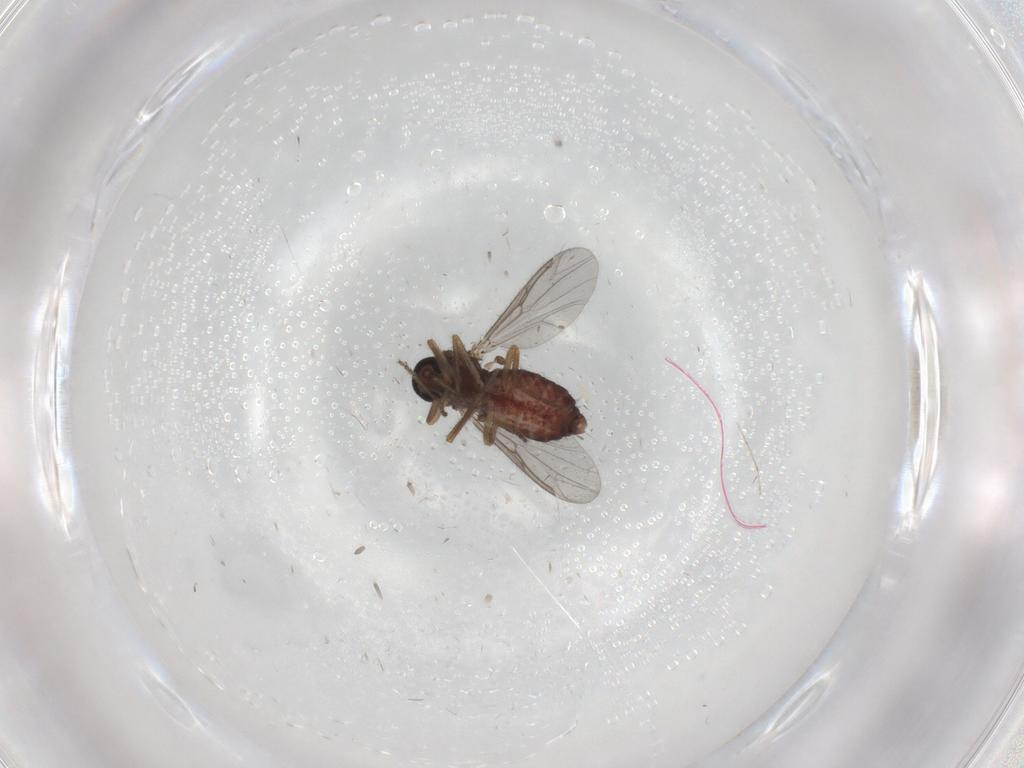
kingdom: Animalia
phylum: Arthropoda
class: Insecta
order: Diptera
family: Ceratopogonidae
